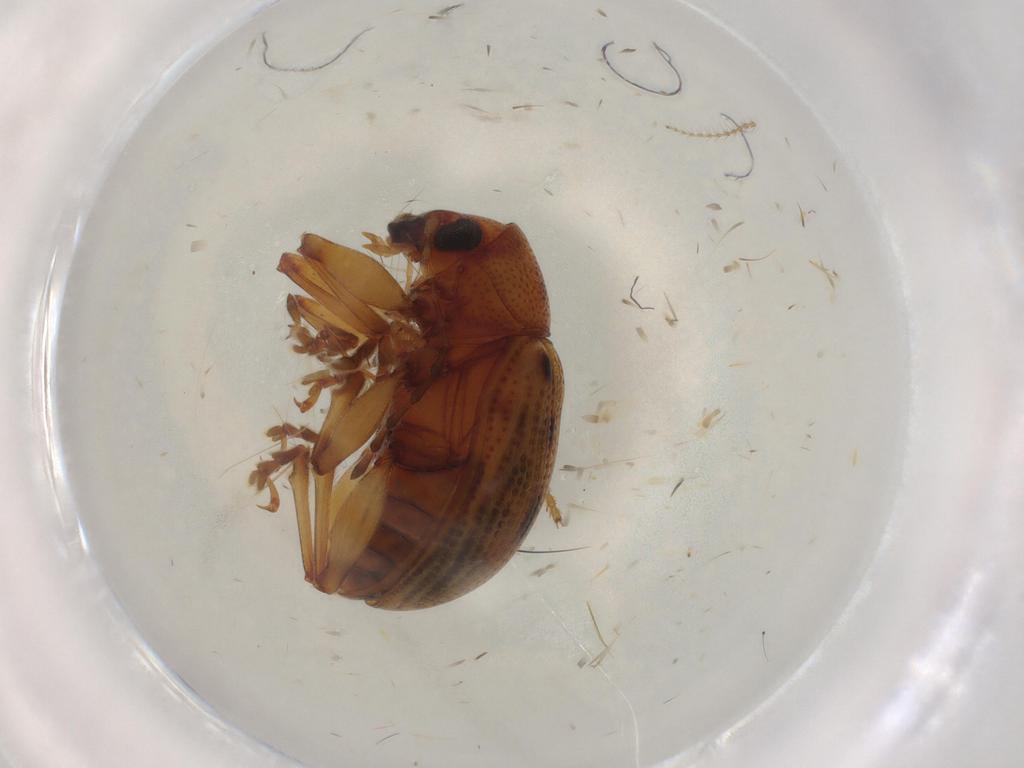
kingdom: Animalia
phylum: Arthropoda
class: Insecta
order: Coleoptera
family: Chrysomelidae
